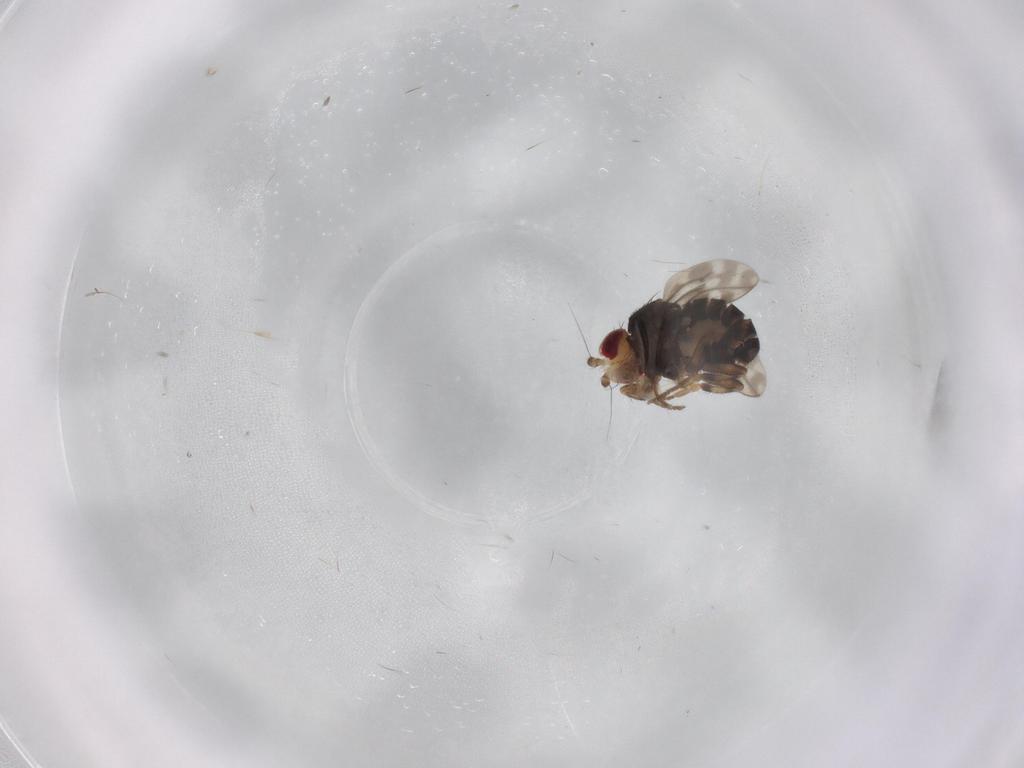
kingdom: Animalia
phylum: Arthropoda
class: Insecta
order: Diptera
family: Sphaeroceridae
